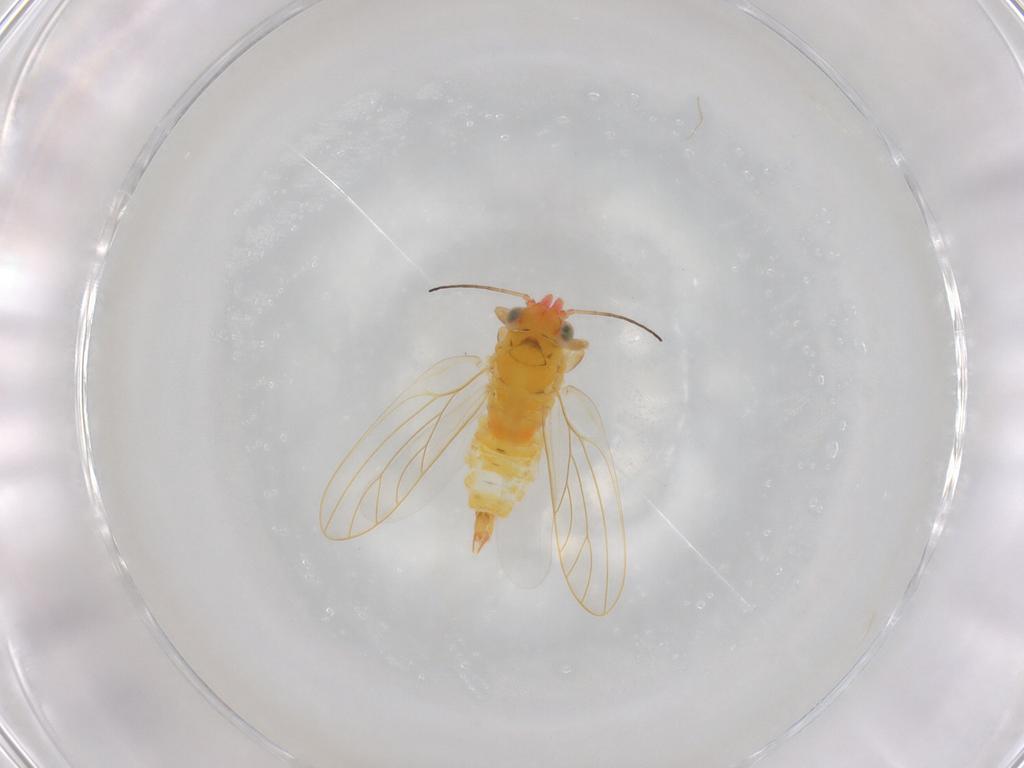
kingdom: Animalia
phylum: Arthropoda
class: Insecta
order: Hemiptera
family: Aphalaridae
